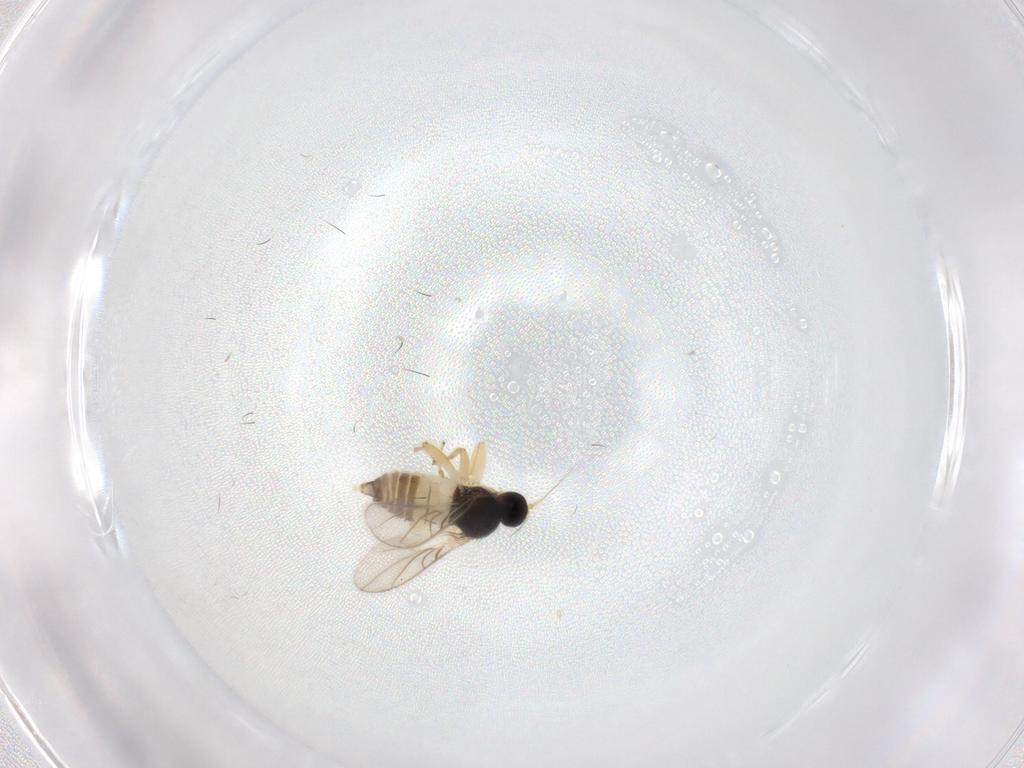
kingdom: Animalia
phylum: Arthropoda
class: Insecta
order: Diptera
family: Hybotidae
